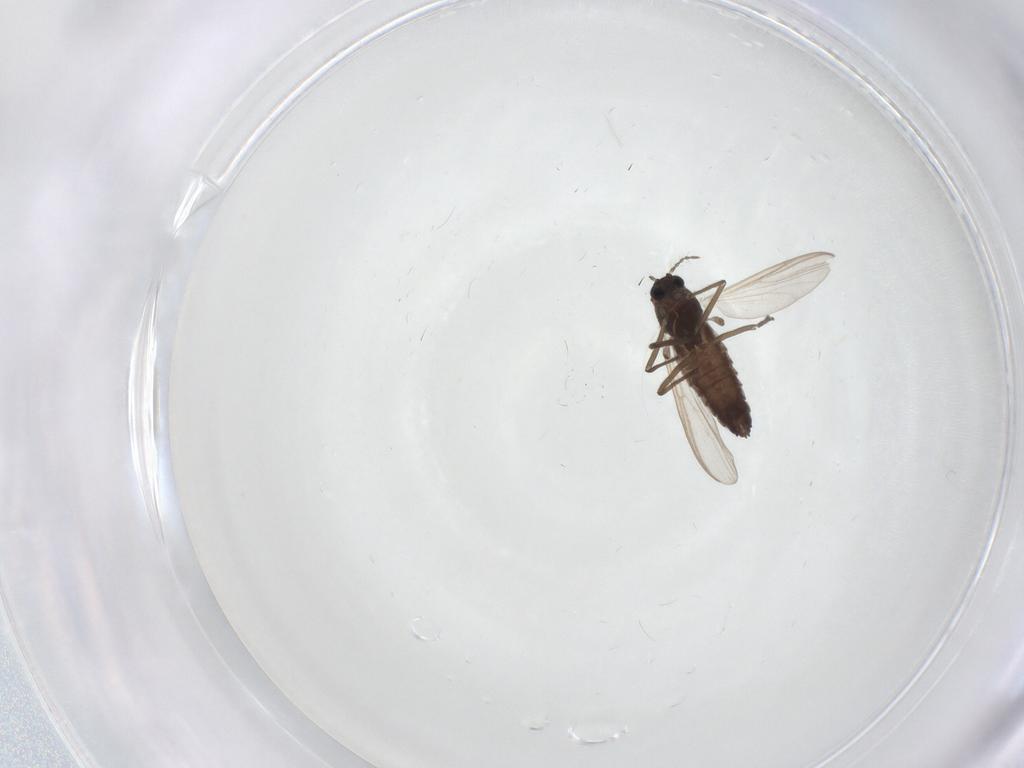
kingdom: Animalia
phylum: Arthropoda
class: Insecta
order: Diptera
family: Chironomidae
